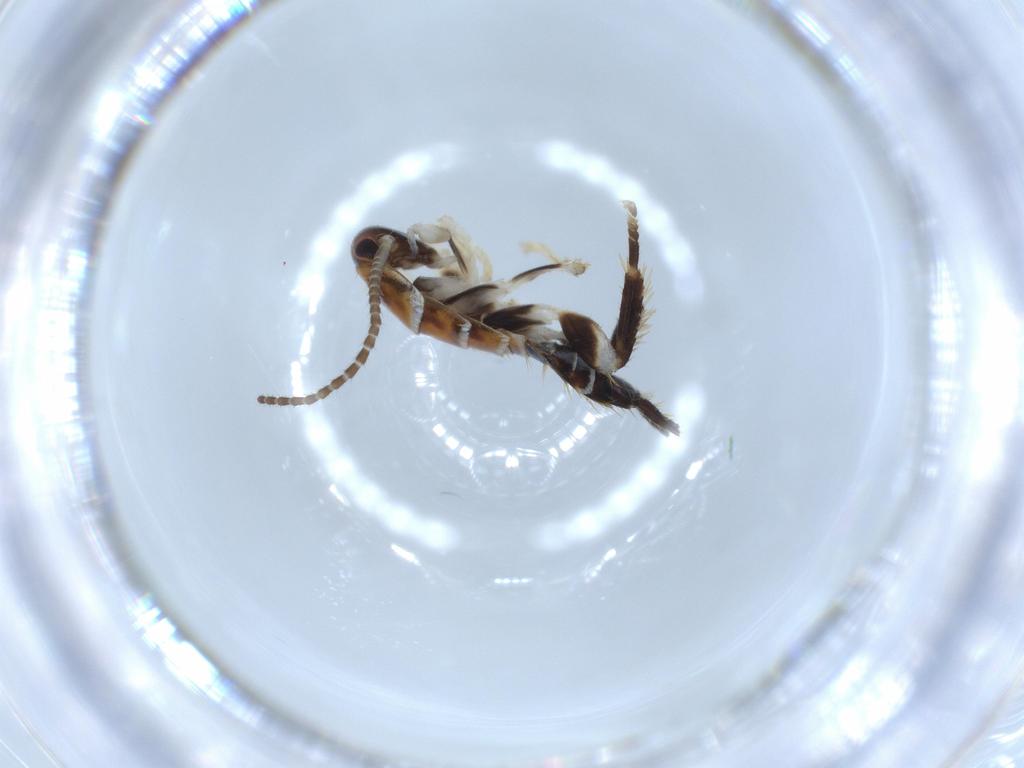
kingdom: Animalia
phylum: Arthropoda
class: Insecta
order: Blattodea
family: Ectobiidae
